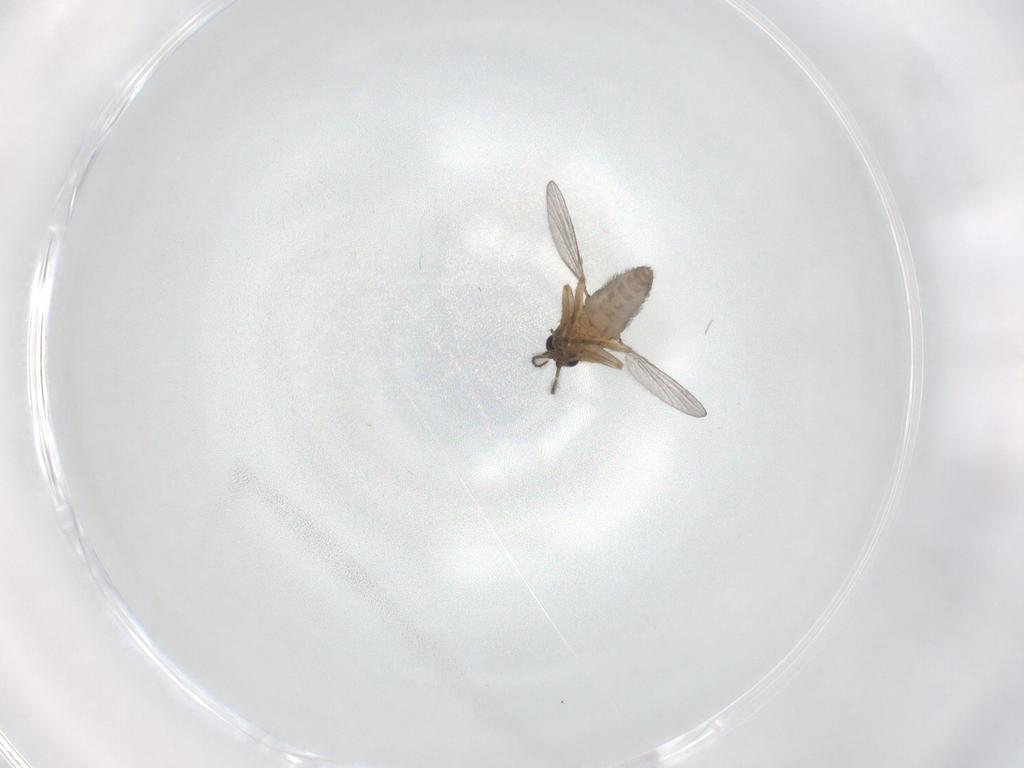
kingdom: Animalia
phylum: Arthropoda
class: Insecta
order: Diptera
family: Ceratopogonidae
